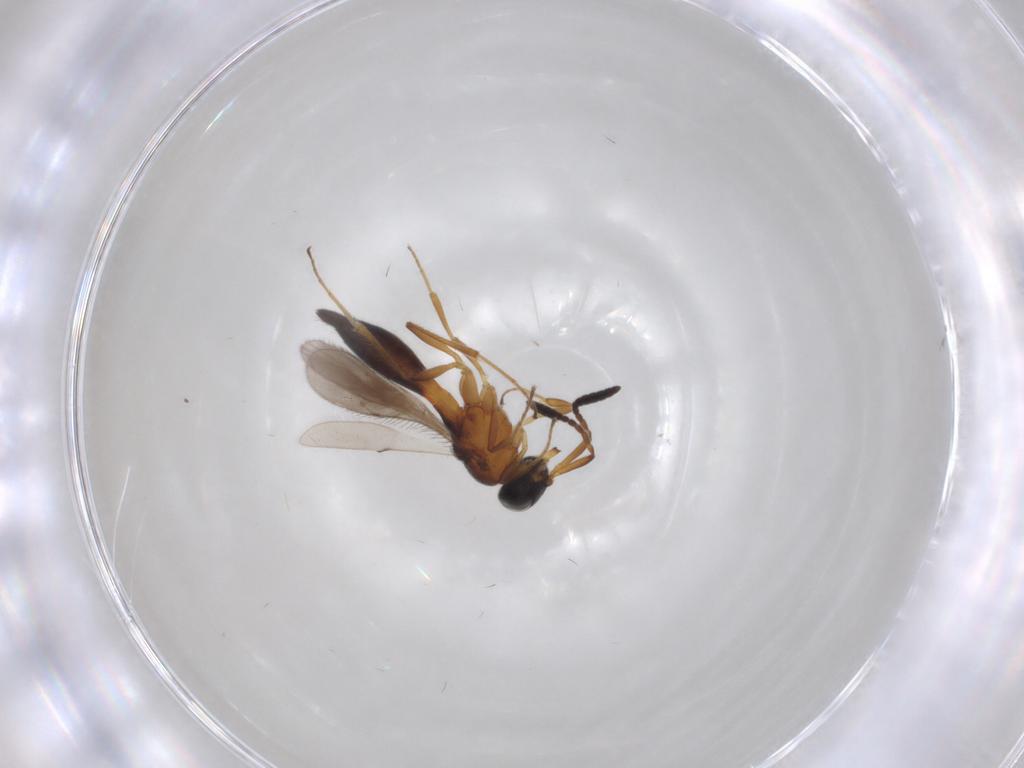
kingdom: Animalia
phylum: Arthropoda
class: Insecta
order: Hymenoptera
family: Scelionidae
